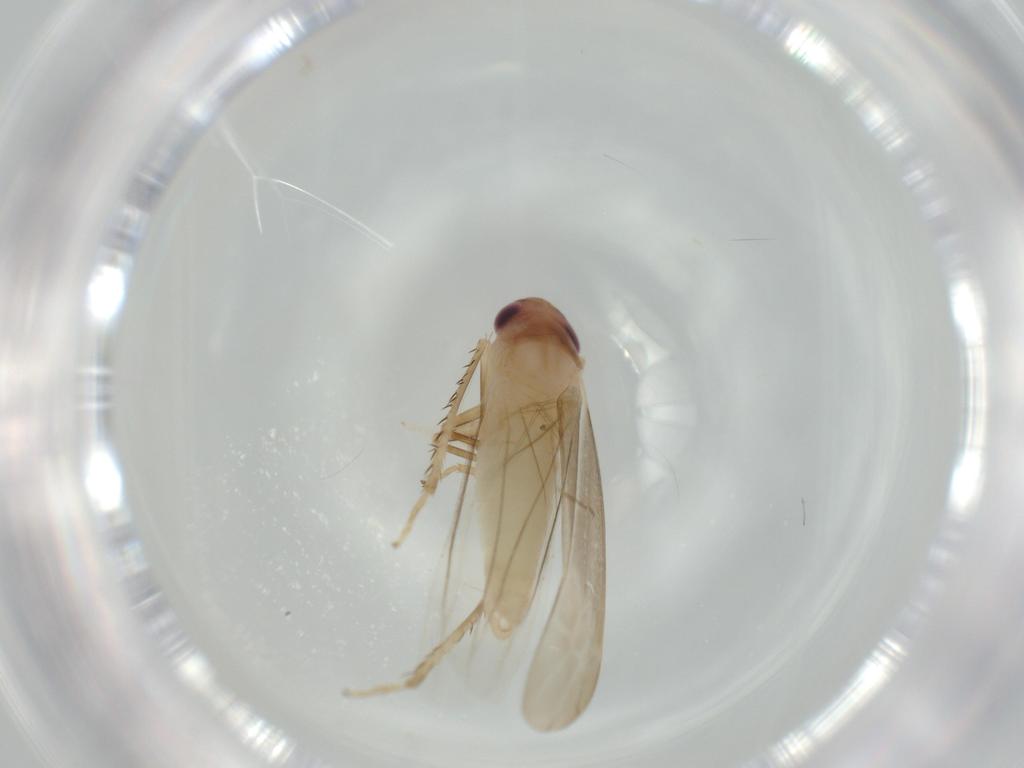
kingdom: Animalia
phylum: Arthropoda
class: Insecta
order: Hemiptera
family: Cicadellidae
